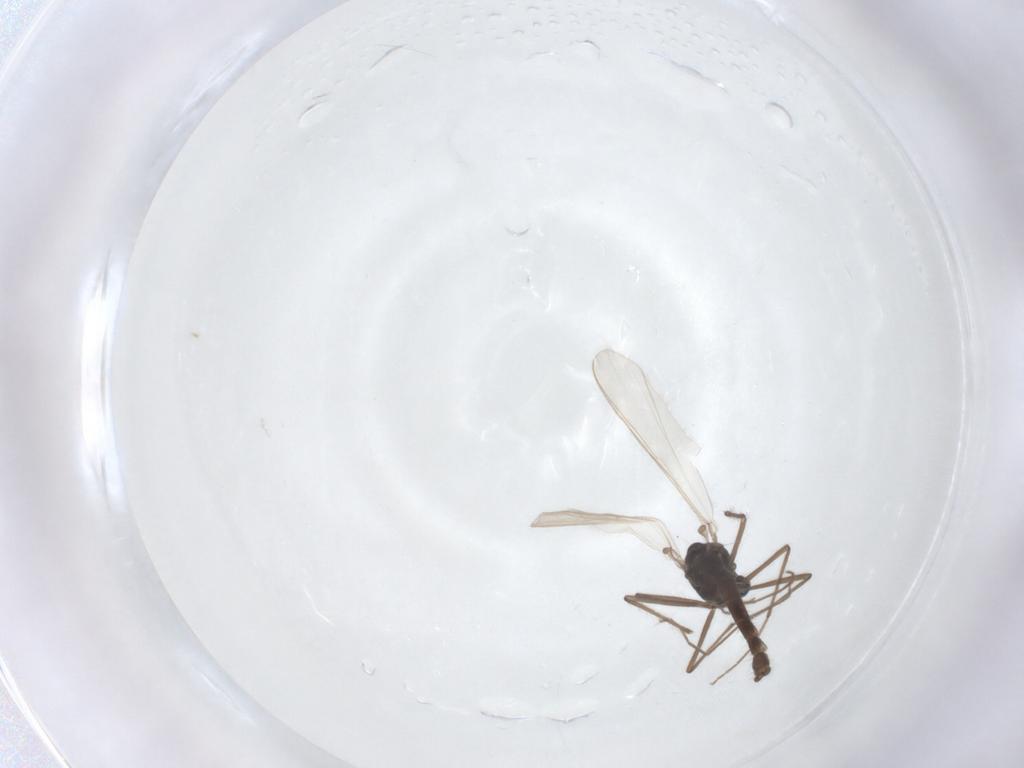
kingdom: Animalia
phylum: Arthropoda
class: Insecta
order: Diptera
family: Chironomidae
